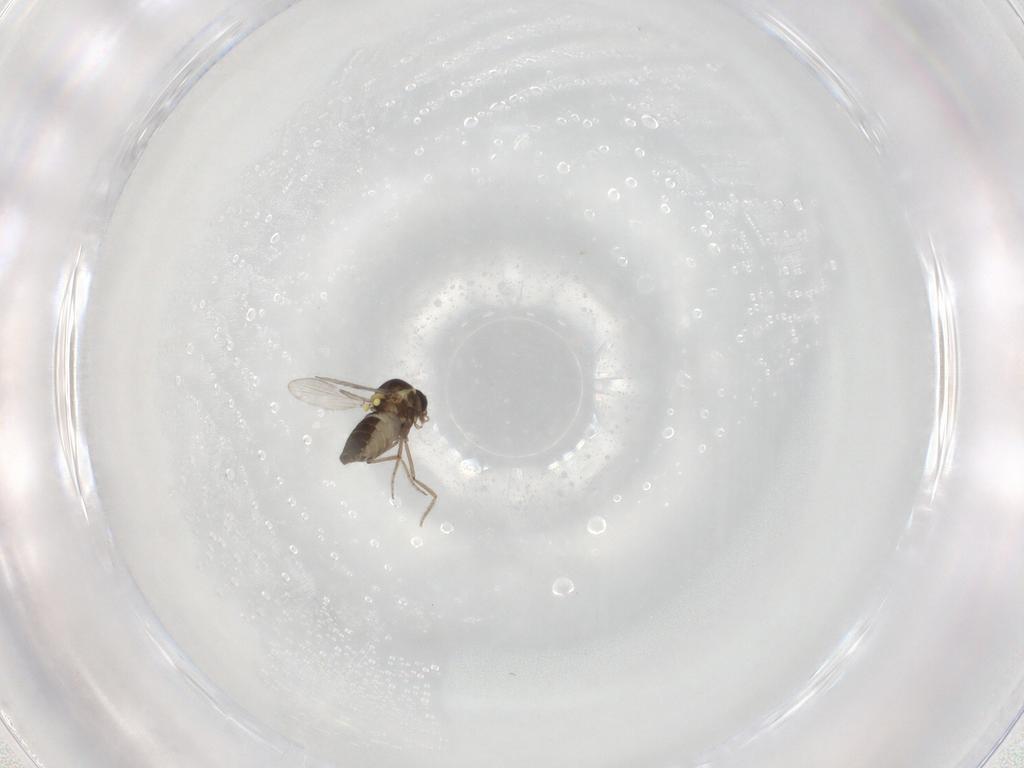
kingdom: Animalia
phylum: Arthropoda
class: Insecta
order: Diptera
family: Ceratopogonidae
